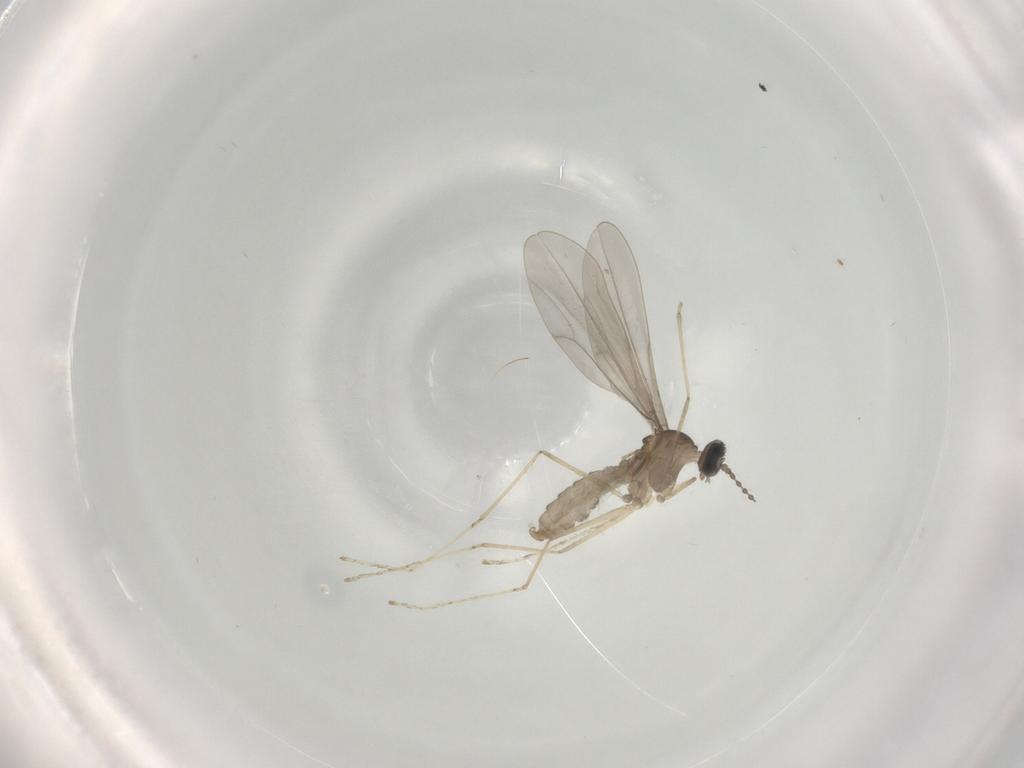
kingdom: Animalia
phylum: Arthropoda
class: Insecta
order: Diptera
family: Cecidomyiidae
